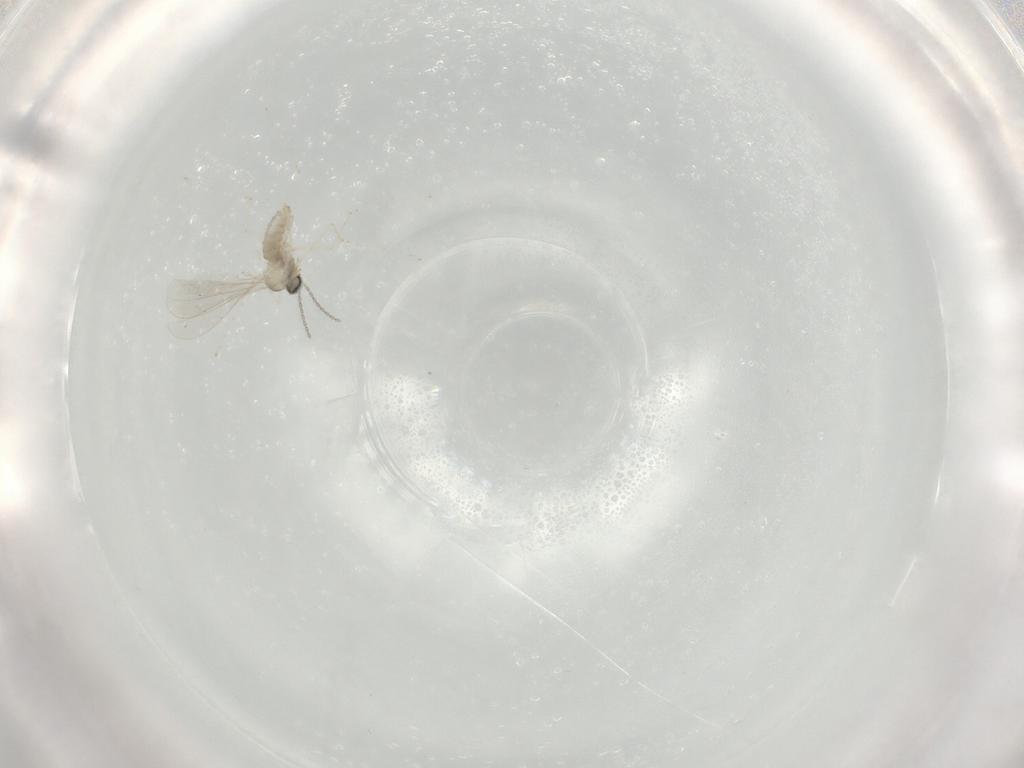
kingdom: Animalia
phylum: Arthropoda
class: Insecta
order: Diptera
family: Cecidomyiidae
